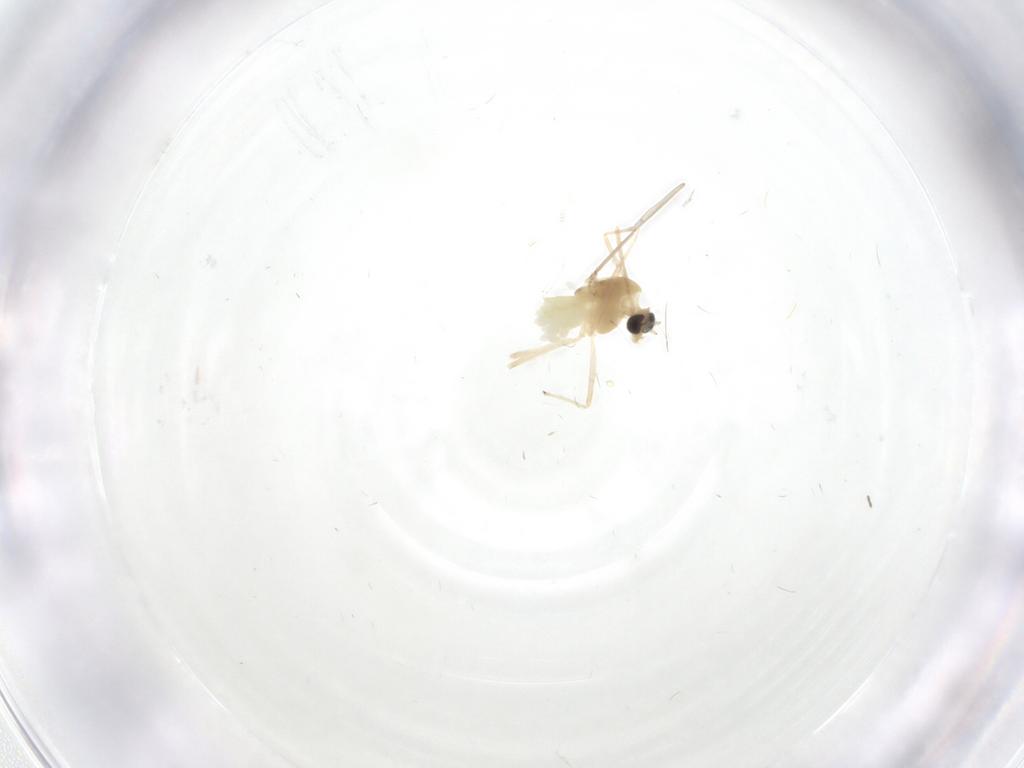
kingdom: Animalia
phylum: Arthropoda
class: Insecta
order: Diptera
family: Chironomidae
